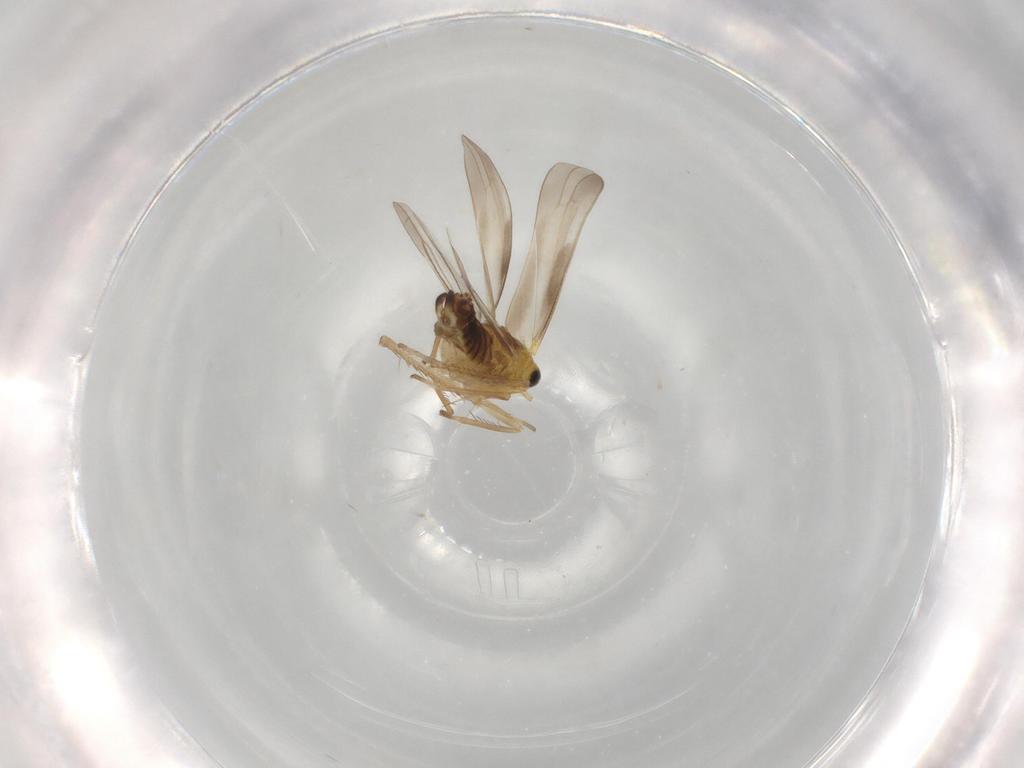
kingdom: Animalia
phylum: Arthropoda
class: Insecta
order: Hemiptera
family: Cicadellidae
